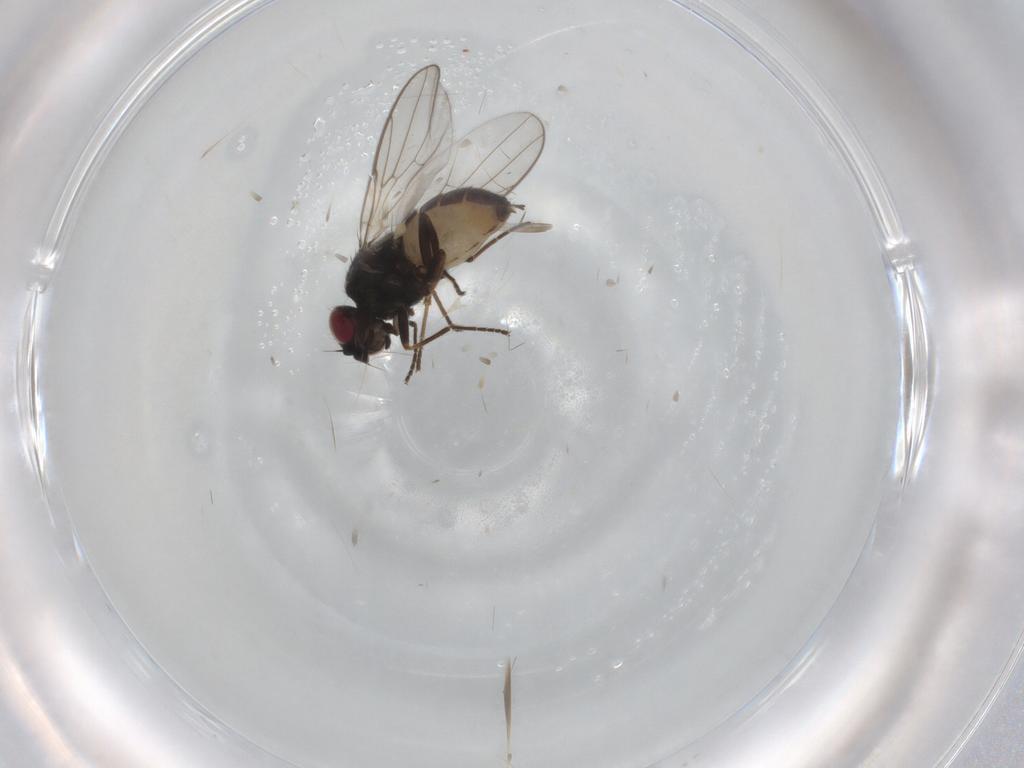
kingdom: Animalia
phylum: Arthropoda
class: Insecta
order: Diptera
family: Chloropidae
